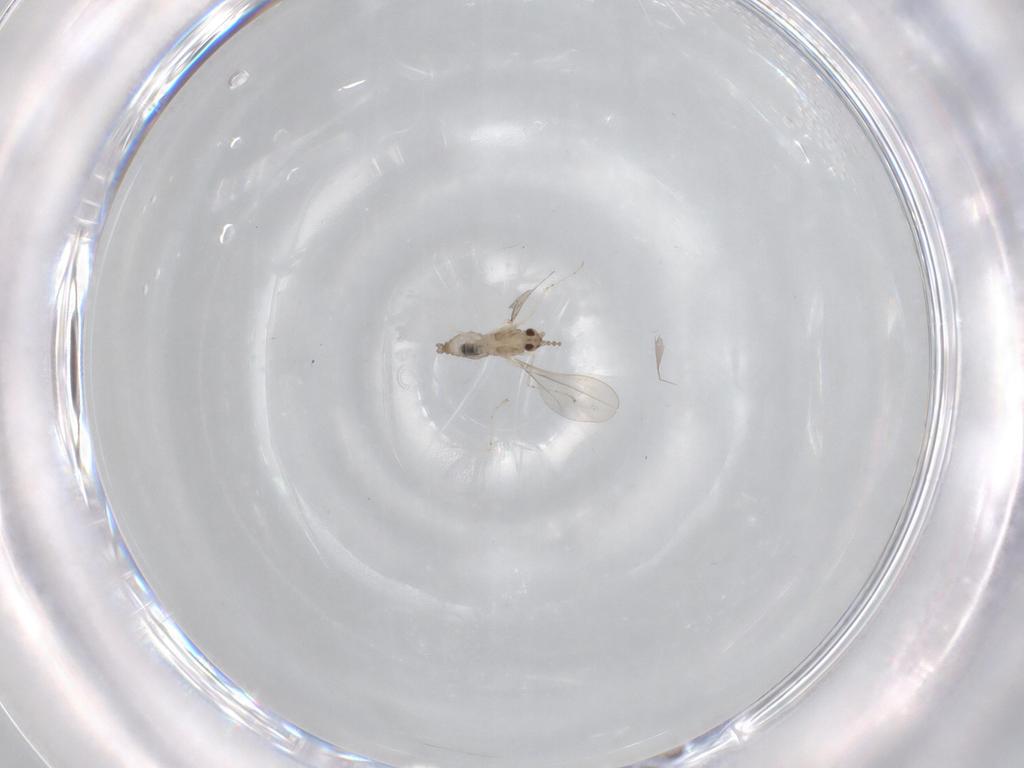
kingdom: Animalia
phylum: Arthropoda
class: Insecta
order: Diptera
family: Cecidomyiidae
